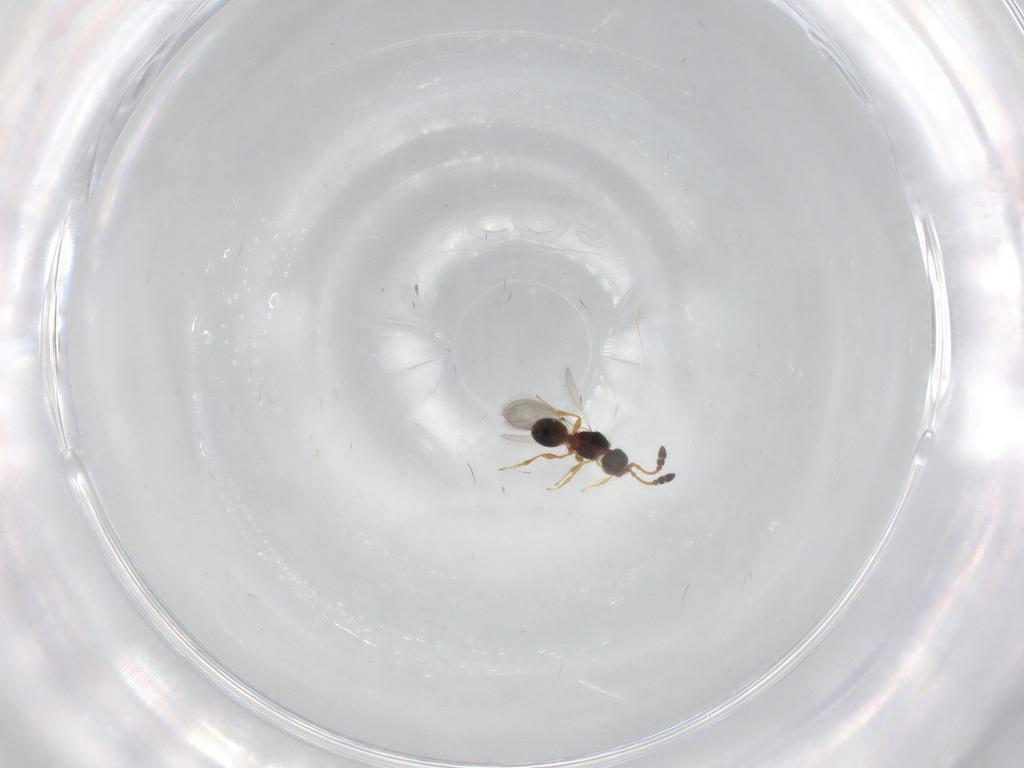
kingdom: Animalia
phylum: Arthropoda
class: Insecta
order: Hymenoptera
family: Diapriidae
